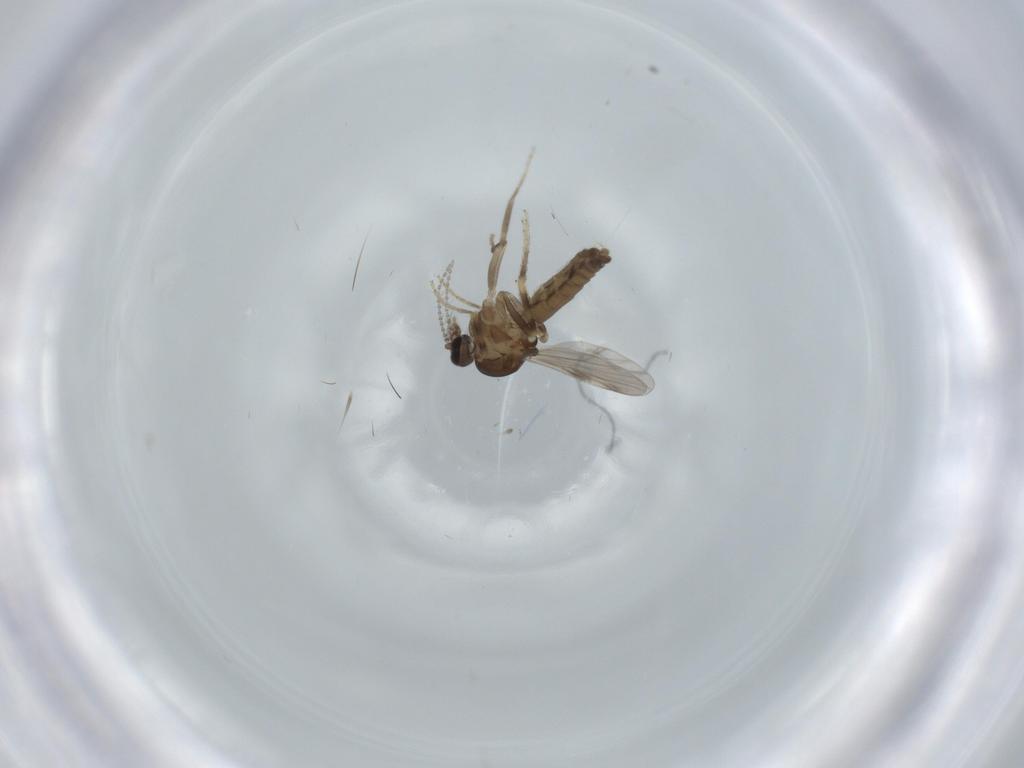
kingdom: Animalia
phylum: Arthropoda
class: Insecta
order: Diptera
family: Ceratopogonidae
